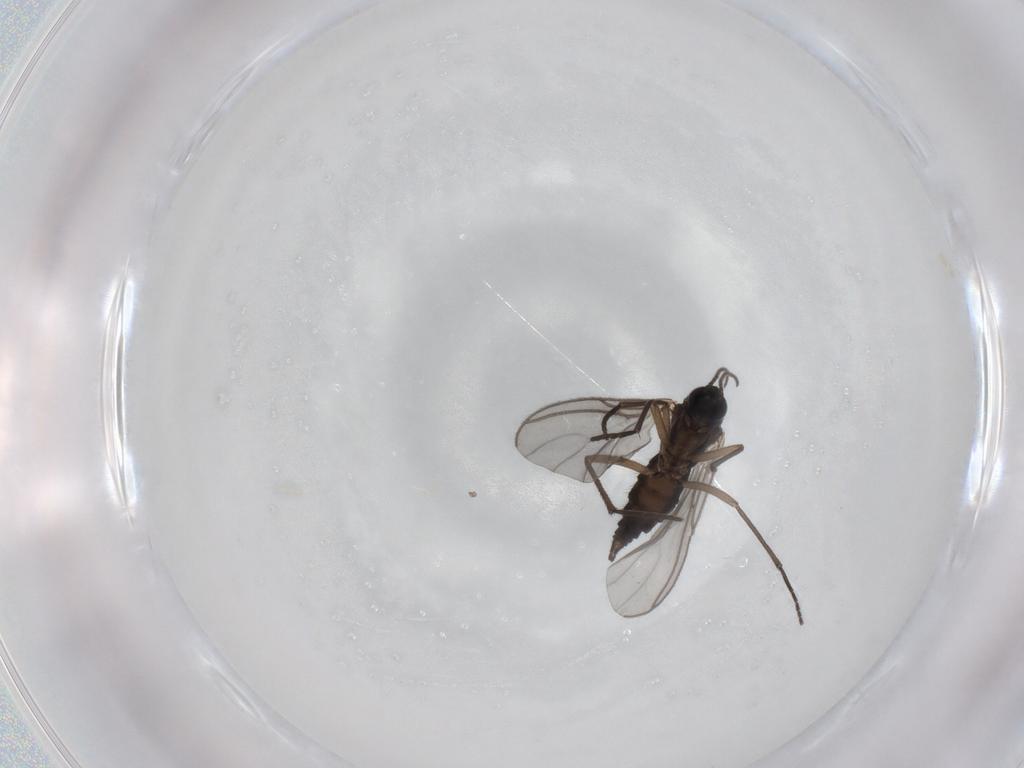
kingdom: Animalia
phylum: Arthropoda
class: Insecta
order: Diptera
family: Sciaridae
